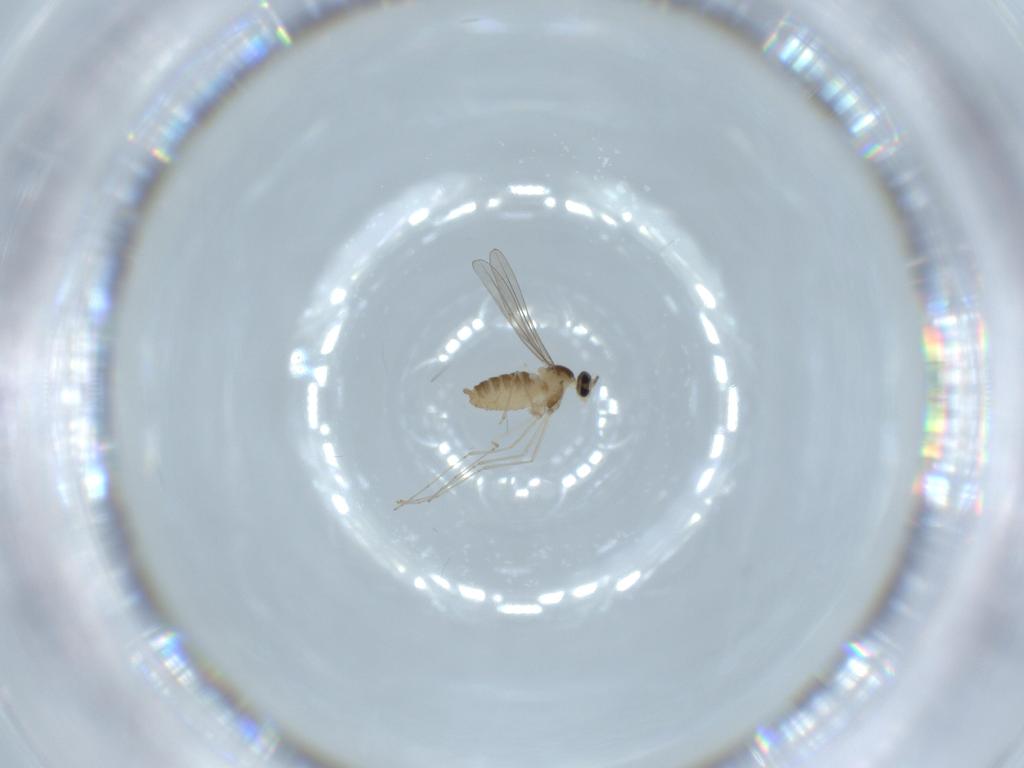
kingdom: Animalia
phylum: Arthropoda
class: Insecta
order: Diptera
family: Cecidomyiidae
